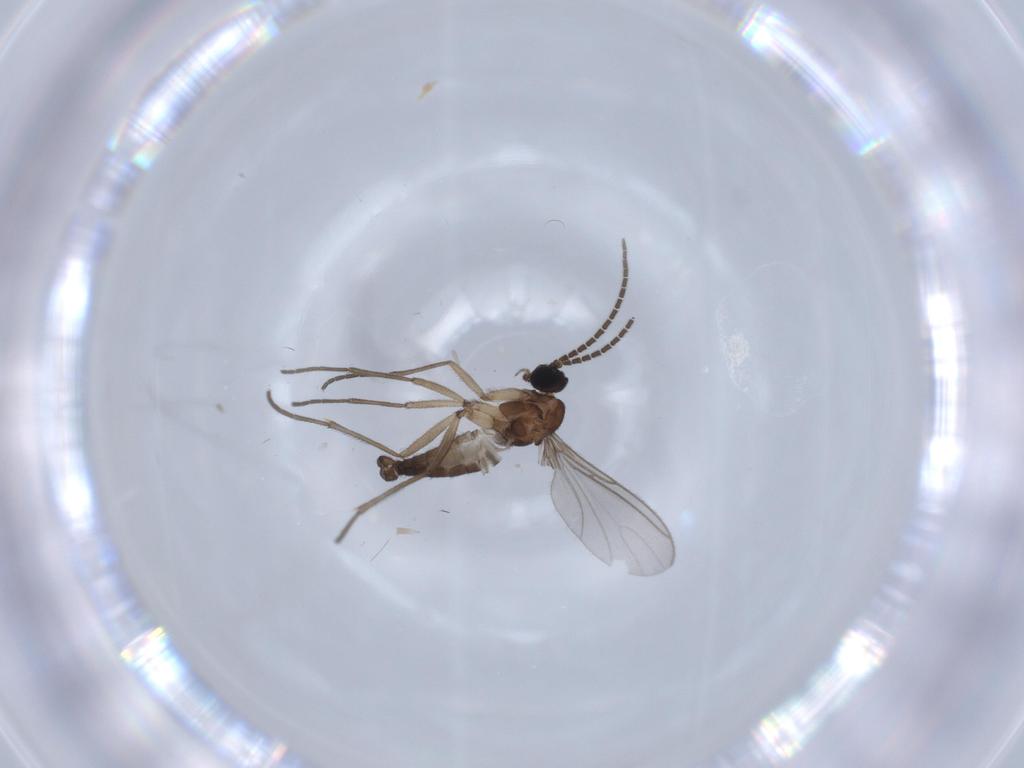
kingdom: Animalia
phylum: Arthropoda
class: Insecta
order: Diptera
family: Sciaridae
